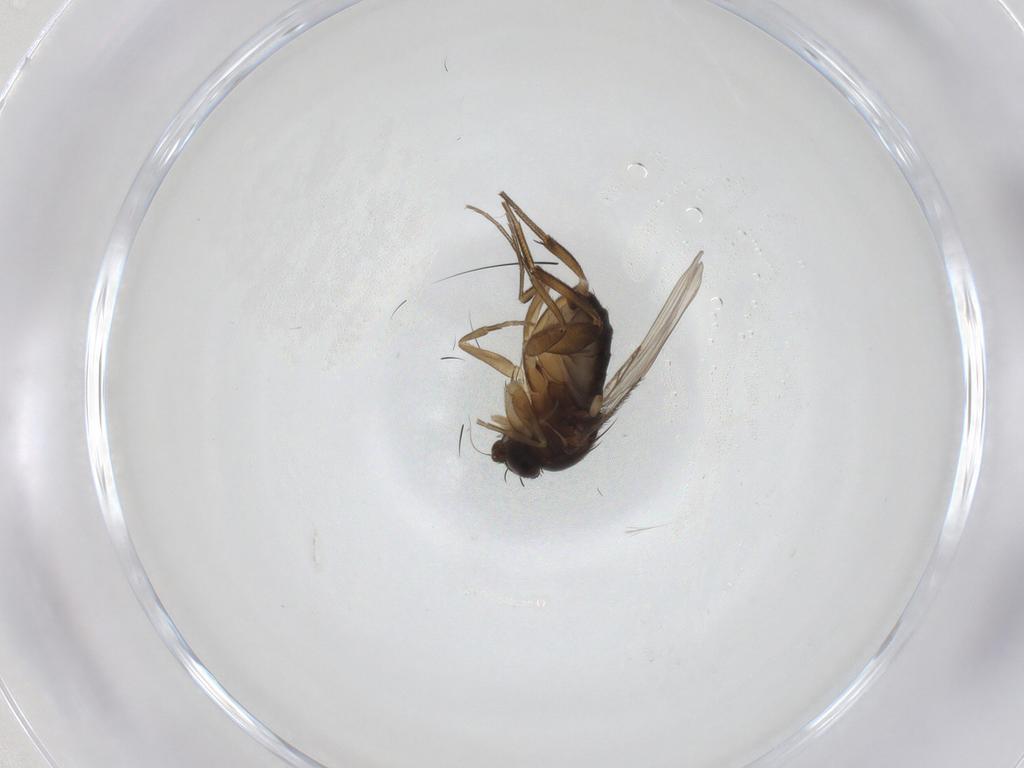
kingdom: Animalia
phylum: Arthropoda
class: Insecta
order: Diptera
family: Phoridae
